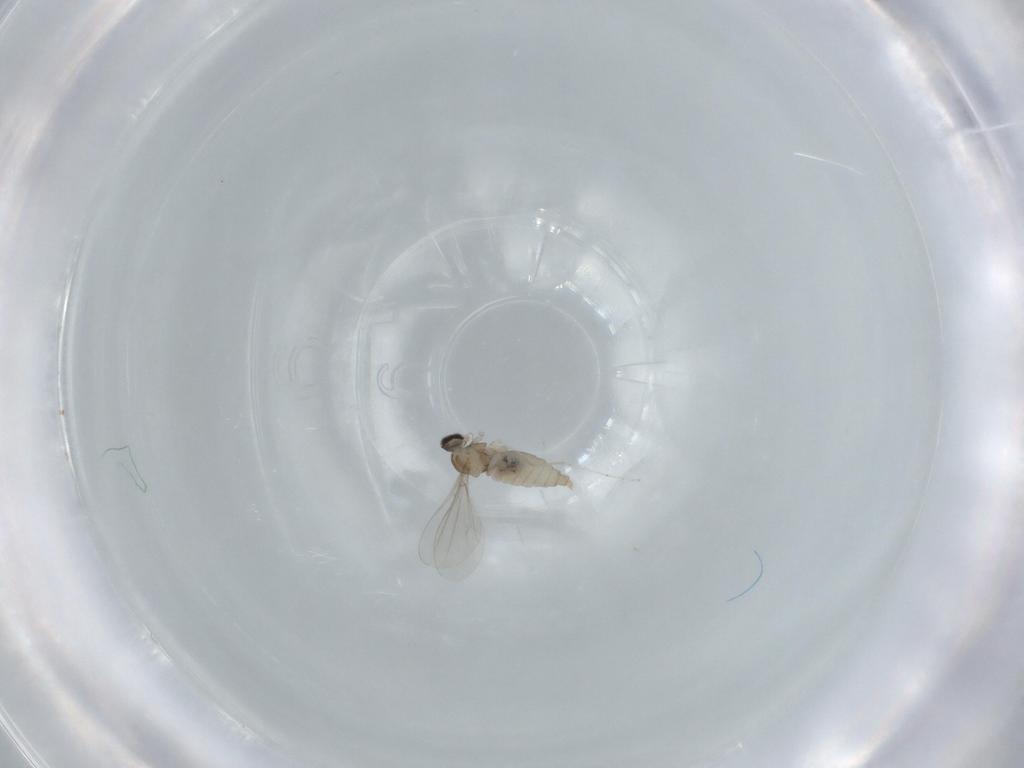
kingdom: Animalia
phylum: Arthropoda
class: Insecta
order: Diptera
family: Cecidomyiidae
